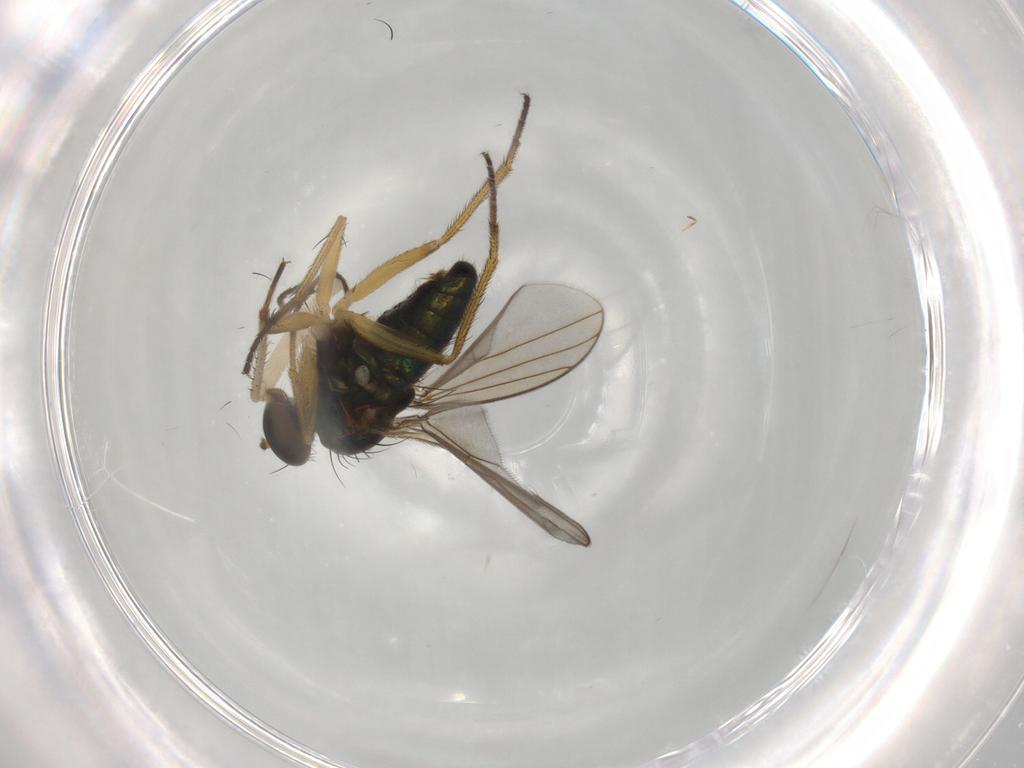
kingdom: Animalia
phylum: Arthropoda
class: Insecta
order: Diptera
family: Dolichopodidae
